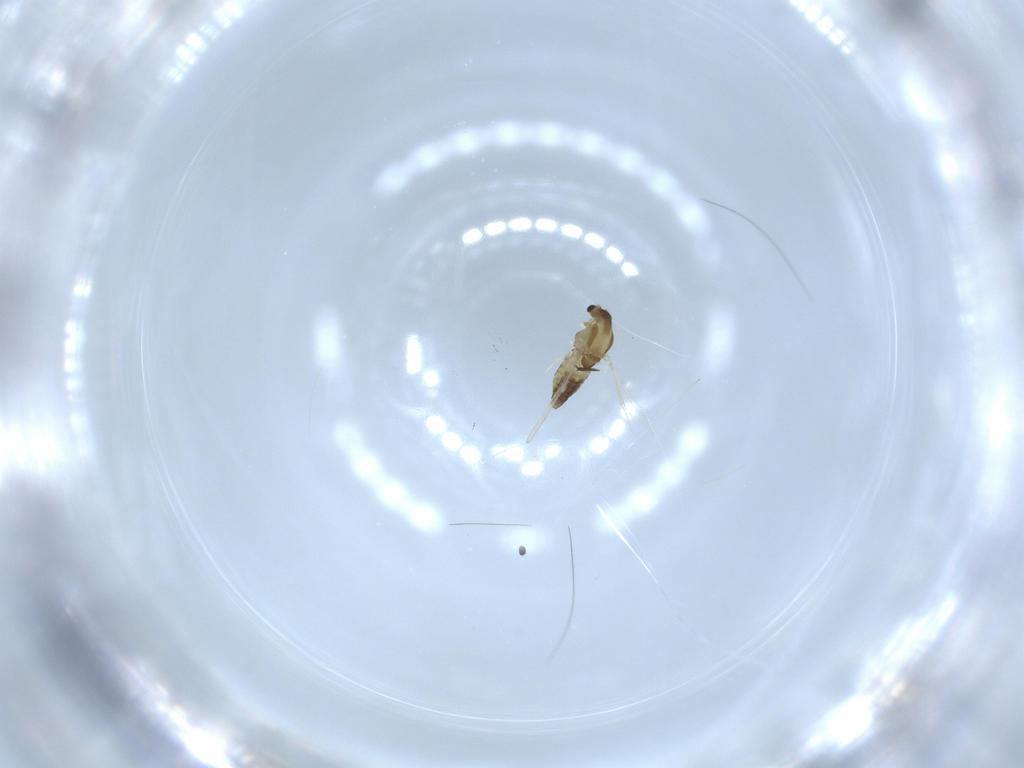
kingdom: Animalia
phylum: Arthropoda
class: Insecta
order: Diptera
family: Chironomidae
